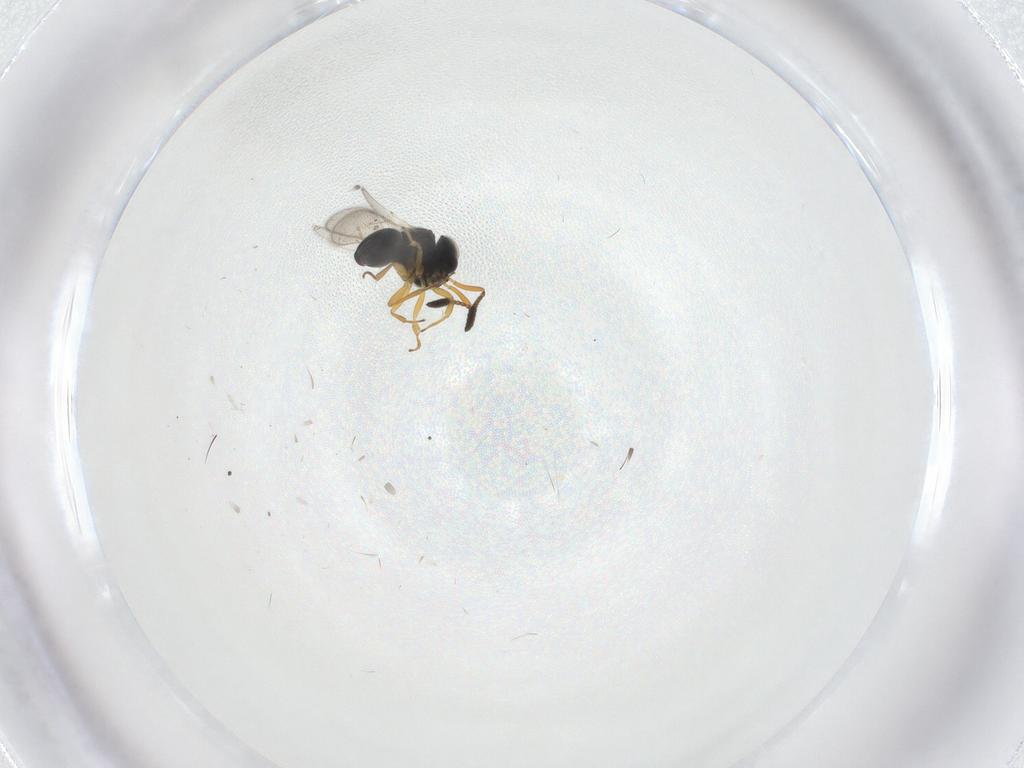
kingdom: Animalia
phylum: Arthropoda
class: Insecta
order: Hymenoptera
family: Scelionidae
